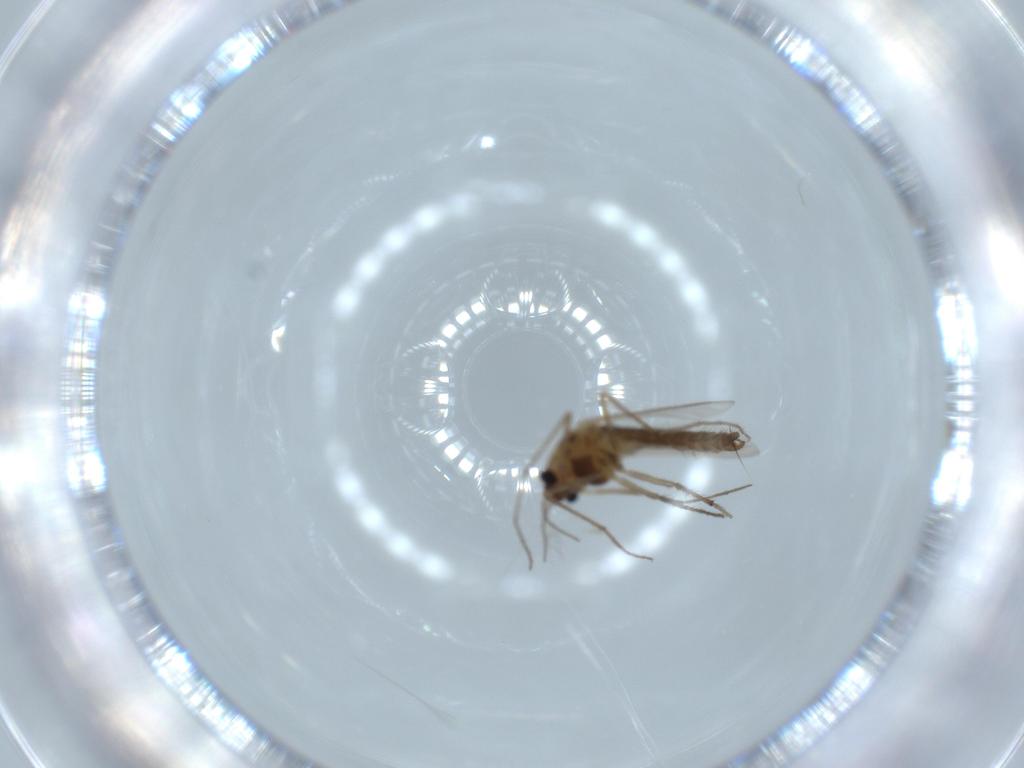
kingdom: Animalia
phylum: Arthropoda
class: Insecta
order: Diptera
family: Chironomidae
